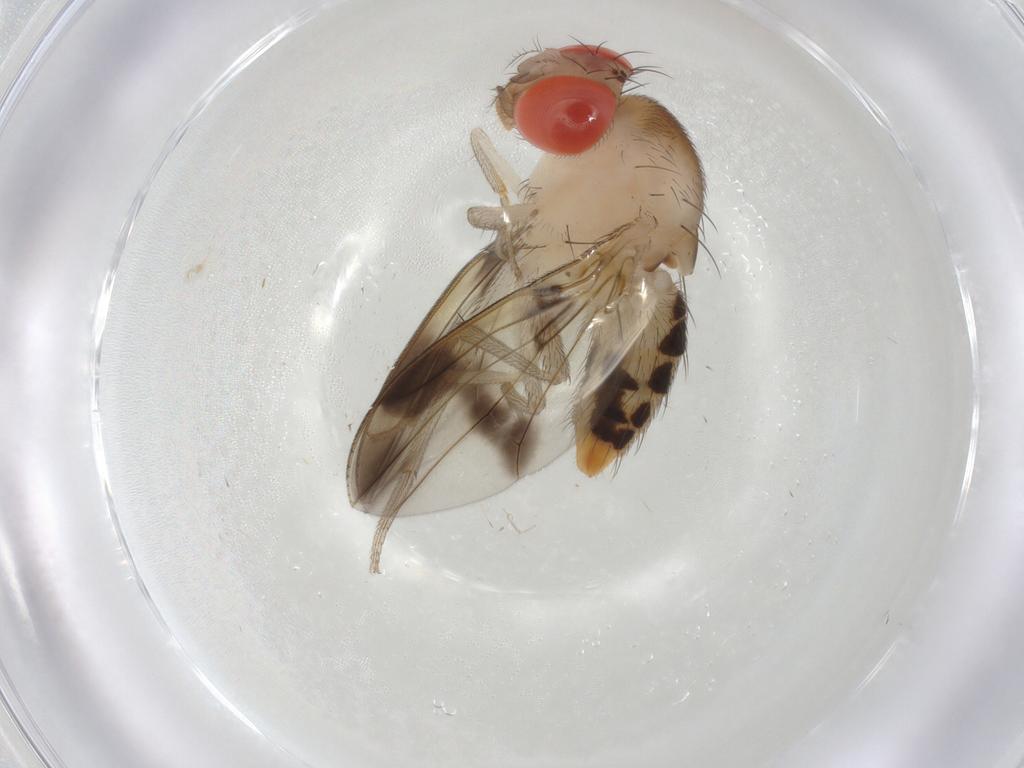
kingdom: Animalia
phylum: Arthropoda
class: Insecta
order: Diptera
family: Drosophilidae
